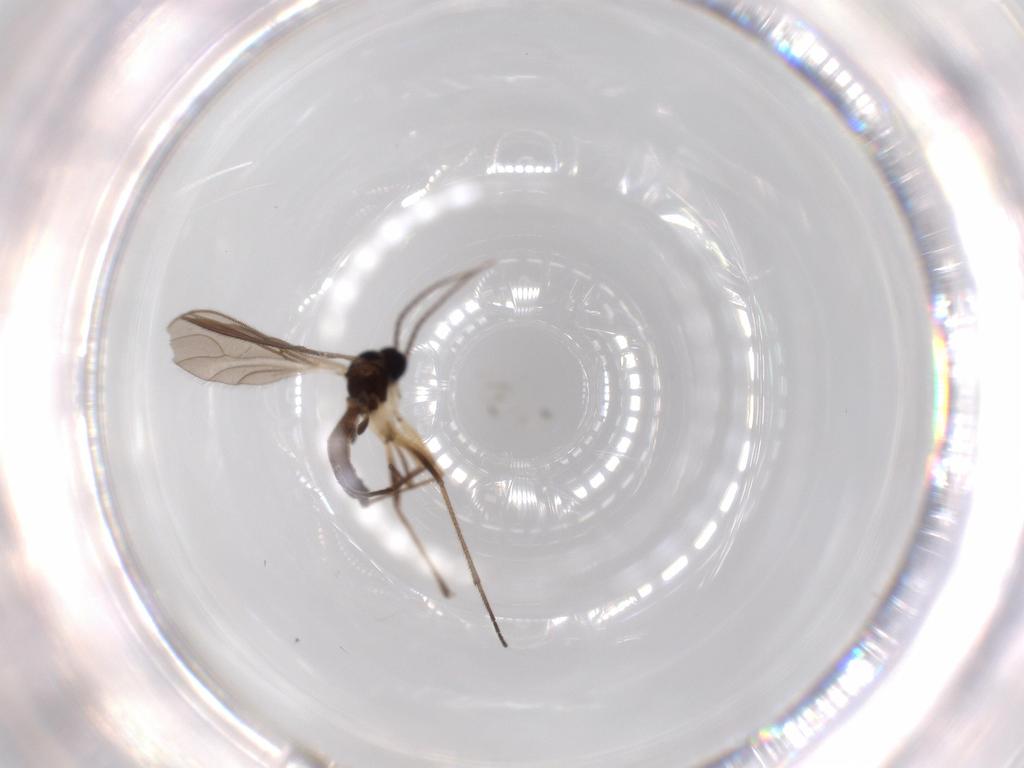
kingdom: Animalia
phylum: Arthropoda
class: Insecta
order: Diptera
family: Sciaridae
